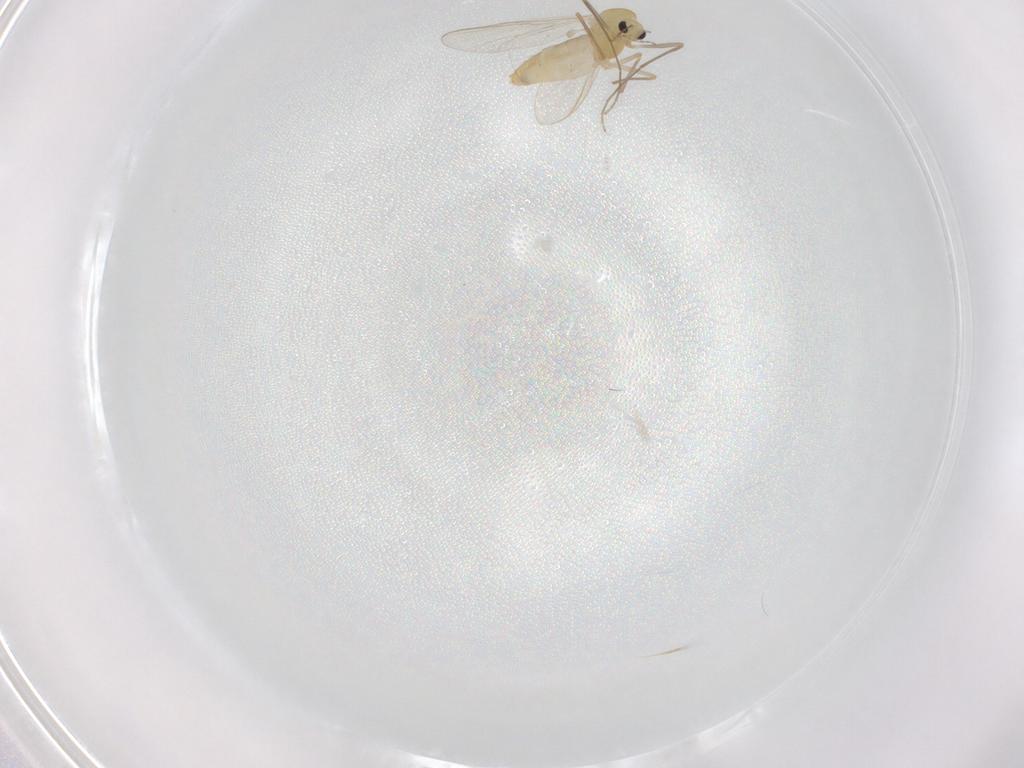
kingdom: Animalia
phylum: Arthropoda
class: Insecta
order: Diptera
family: Chironomidae
